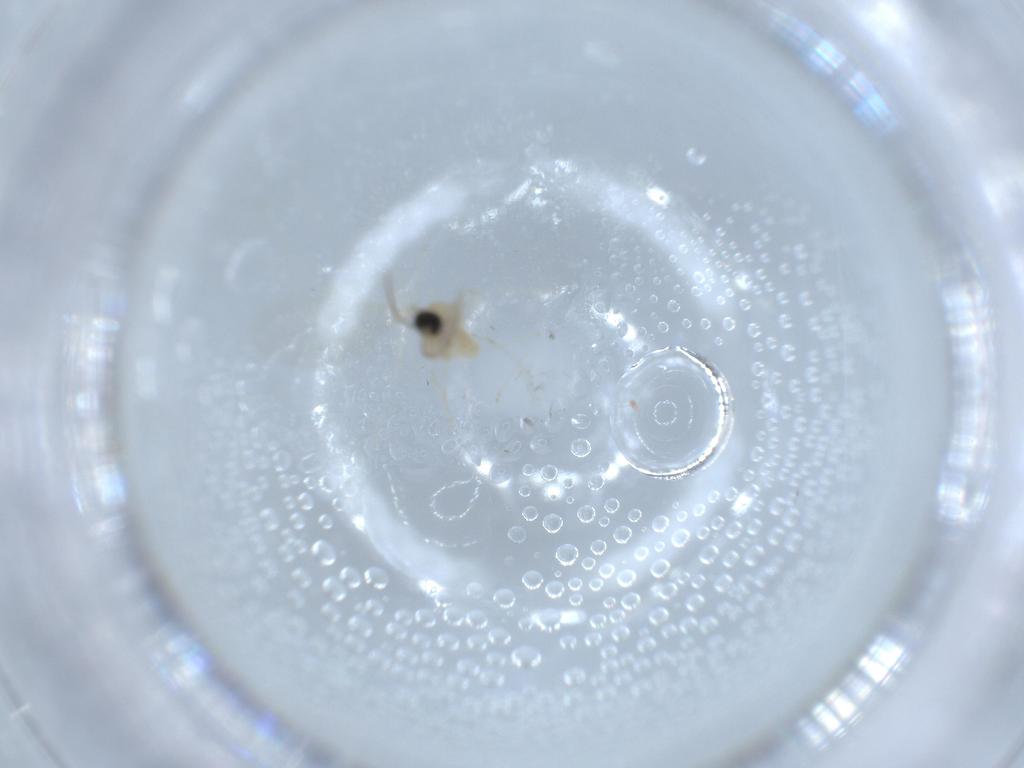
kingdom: Animalia
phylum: Arthropoda
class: Insecta
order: Diptera
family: Cecidomyiidae
